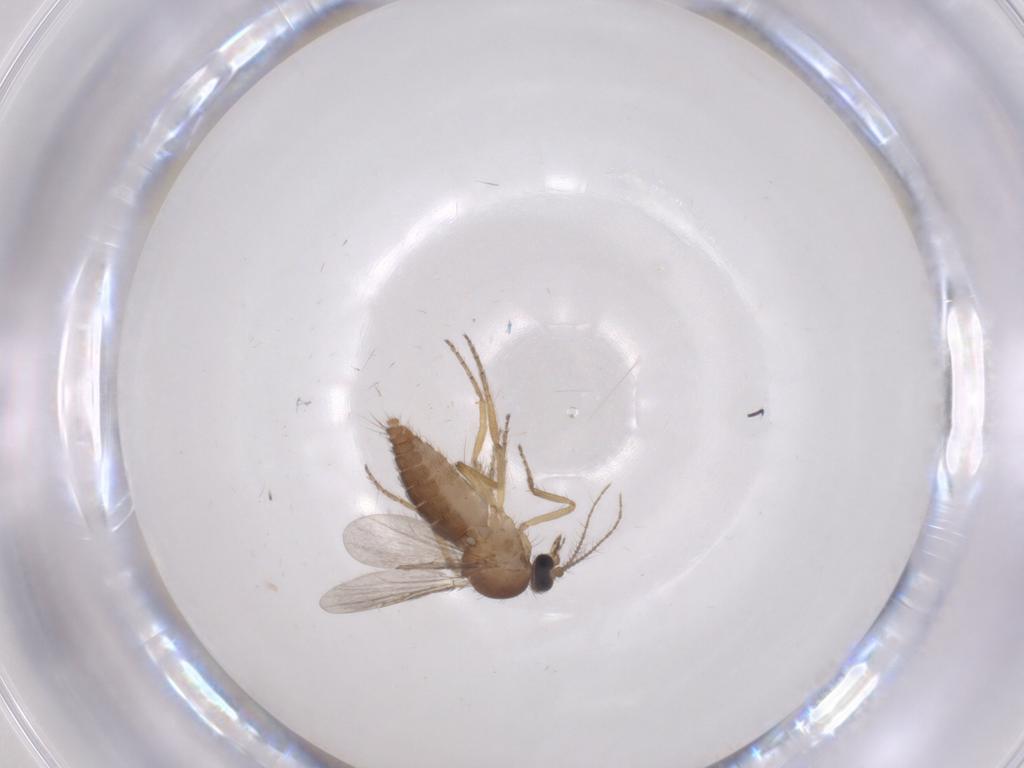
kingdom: Animalia
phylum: Arthropoda
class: Insecta
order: Diptera
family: Ceratopogonidae
